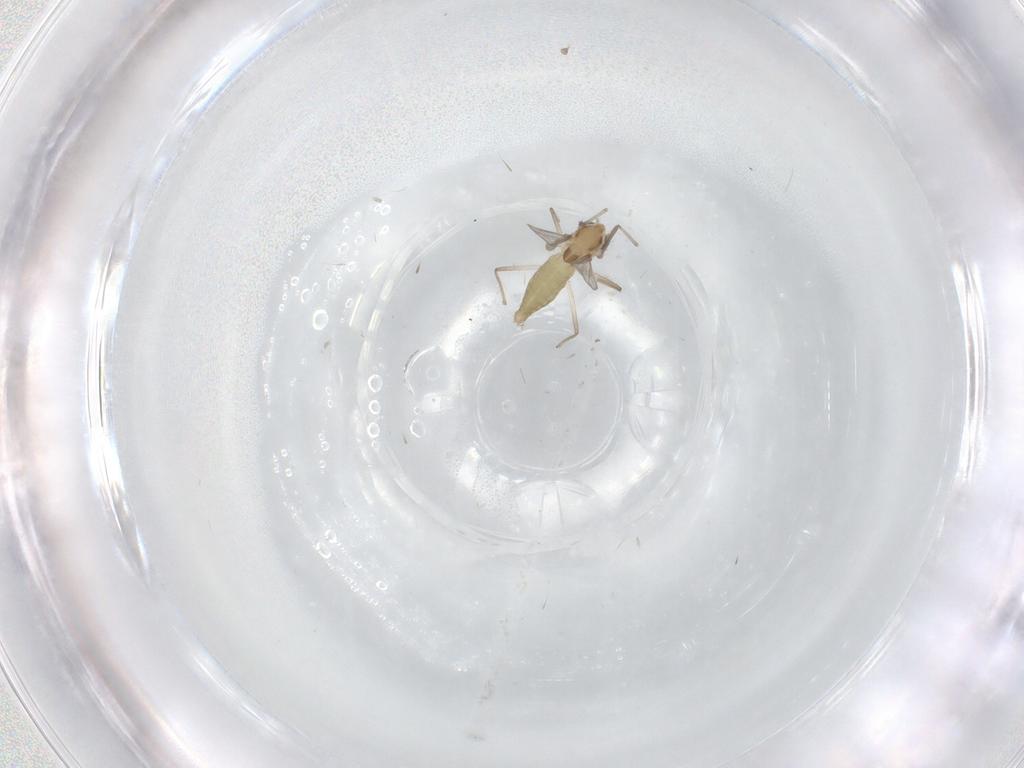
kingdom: Animalia
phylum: Arthropoda
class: Insecta
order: Diptera
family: Chironomidae
